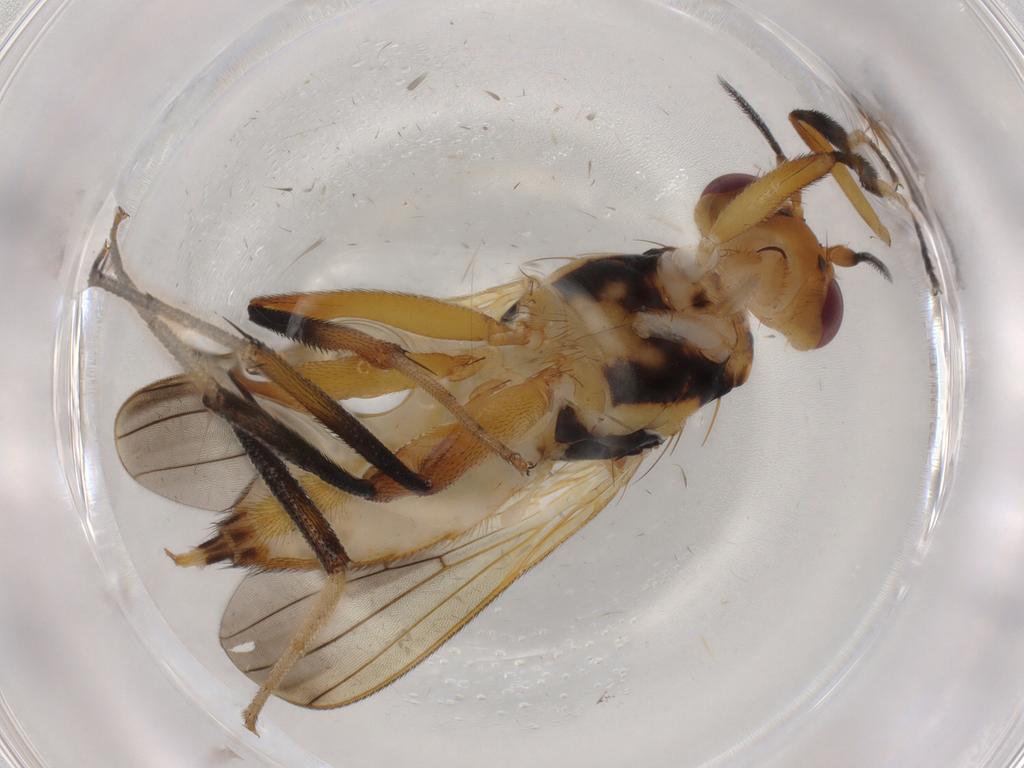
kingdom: Animalia
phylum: Arthropoda
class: Insecta
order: Diptera
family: Clusiidae
